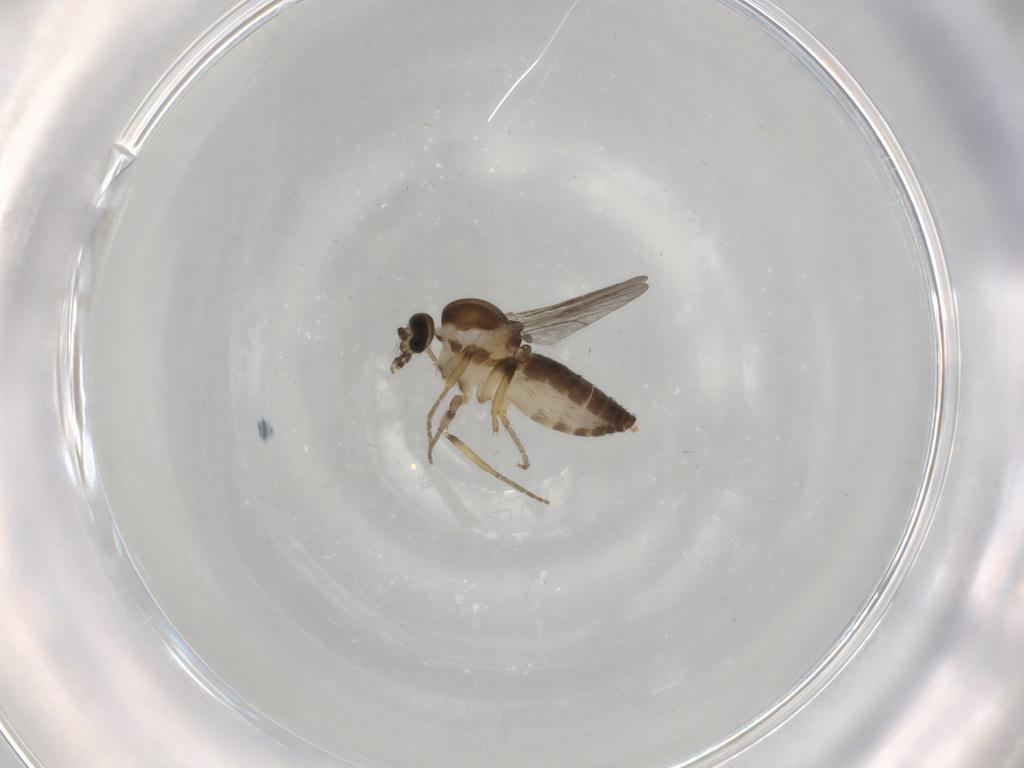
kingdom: Animalia
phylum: Arthropoda
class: Insecta
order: Diptera
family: Ceratopogonidae
